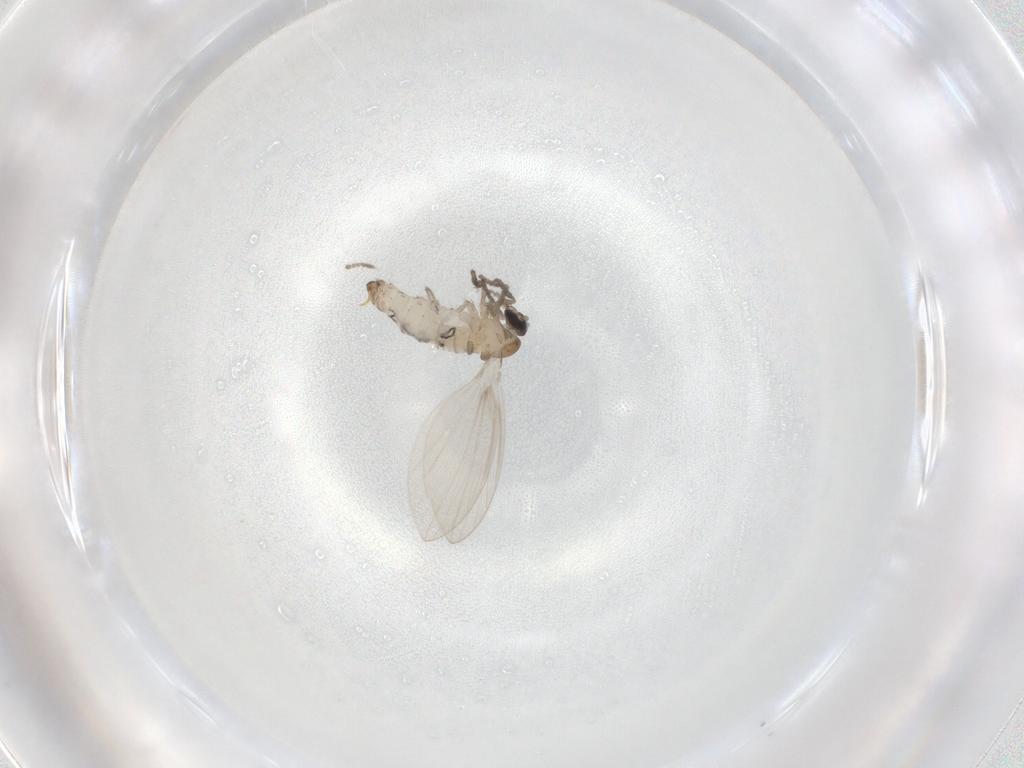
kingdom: Animalia
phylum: Arthropoda
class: Insecta
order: Diptera
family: Psychodidae
